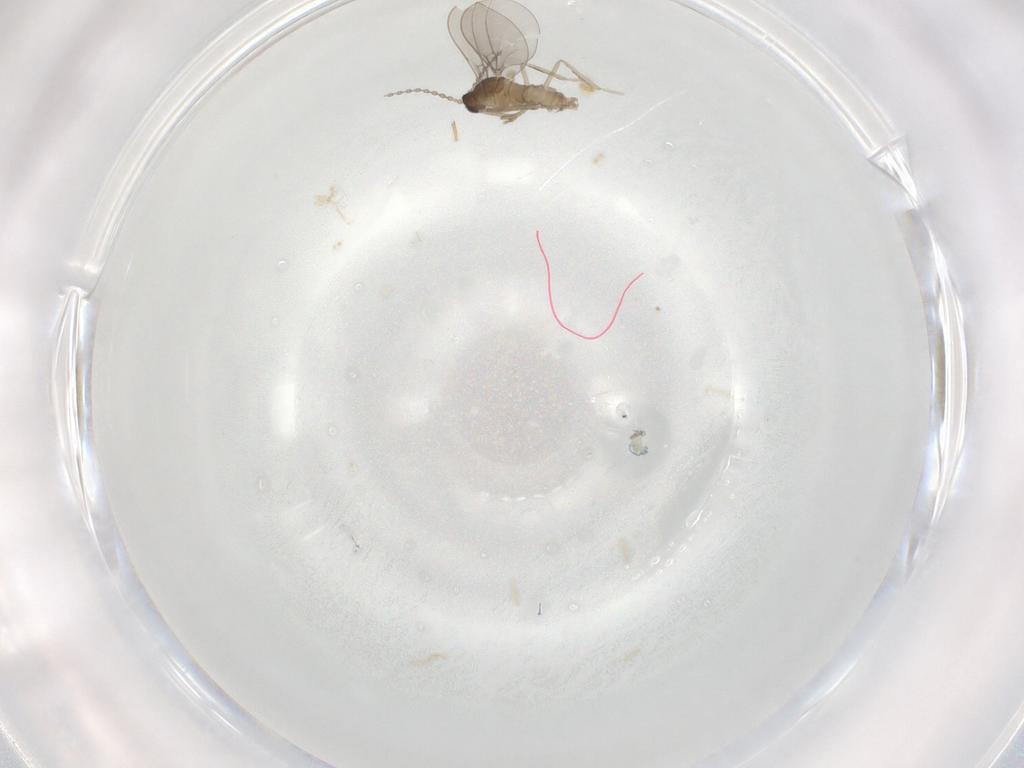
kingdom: Animalia
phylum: Arthropoda
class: Insecta
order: Diptera
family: Cecidomyiidae
